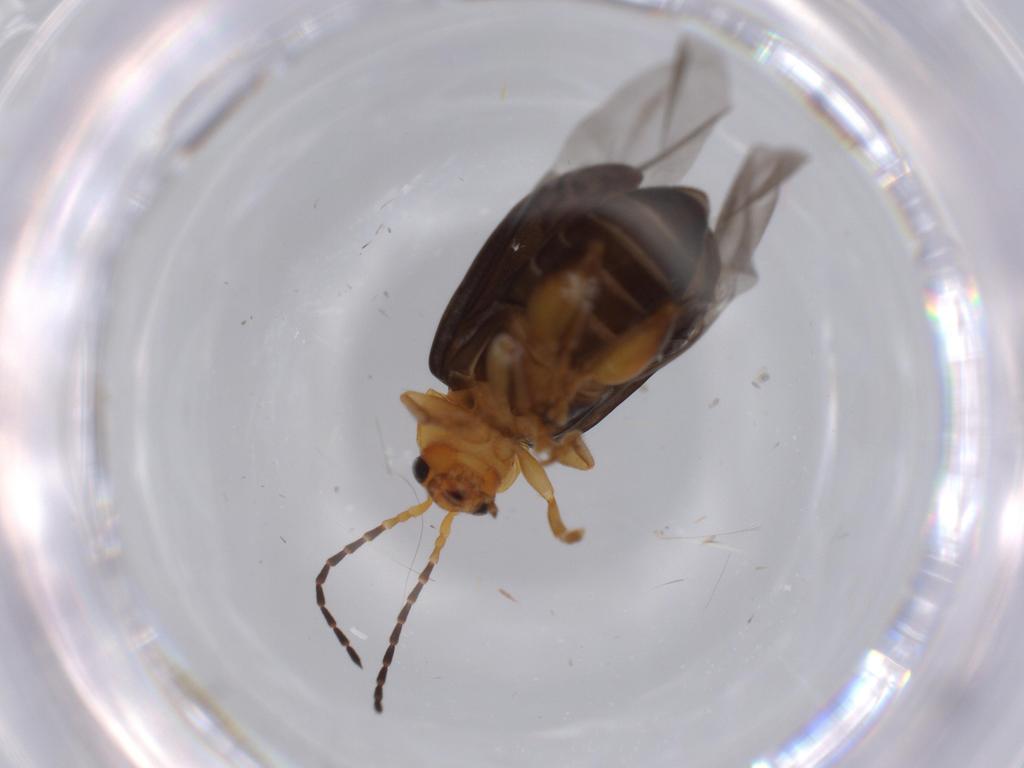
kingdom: Animalia
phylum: Arthropoda
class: Insecta
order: Coleoptera
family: Chrysomelidae
